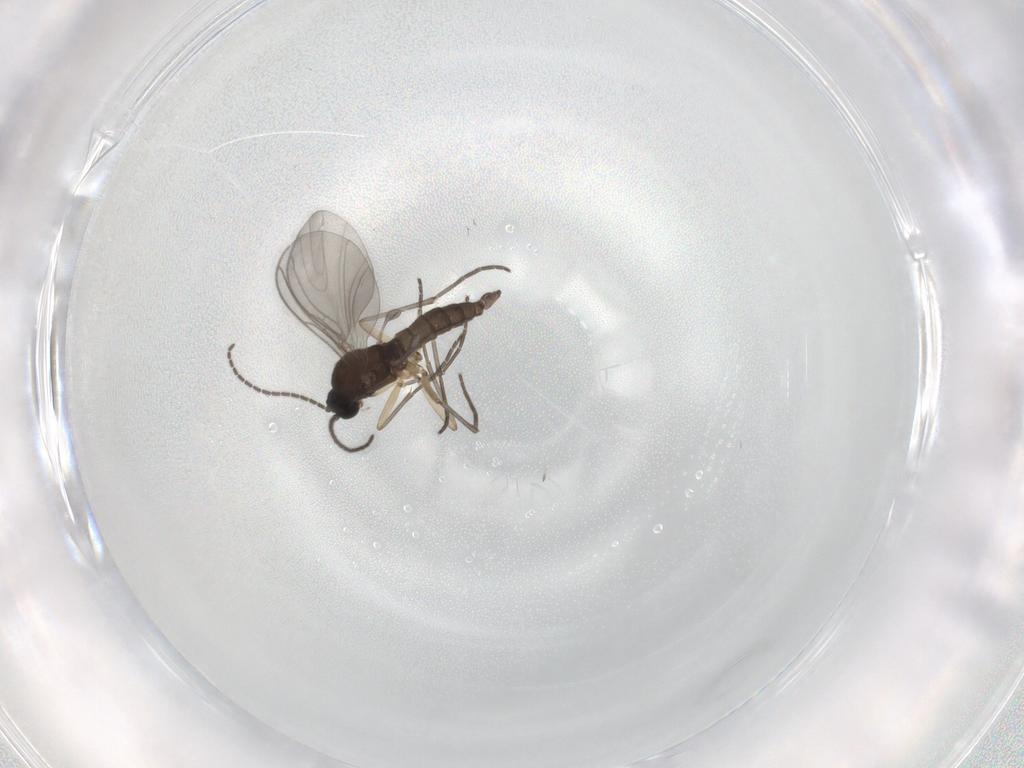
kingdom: Animalia
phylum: Arthropoda
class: Insecta
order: Diptera
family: Sciaridae
